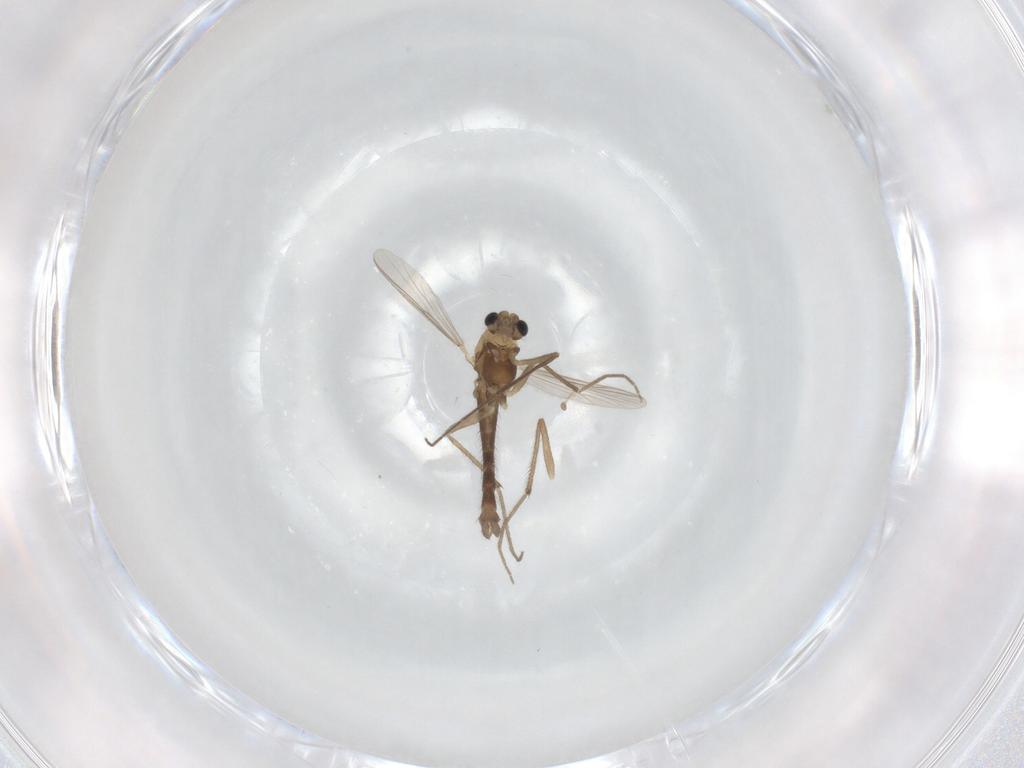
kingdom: Animalia
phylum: Arthropoda
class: Insecta
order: Diptera
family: Chironomidae
